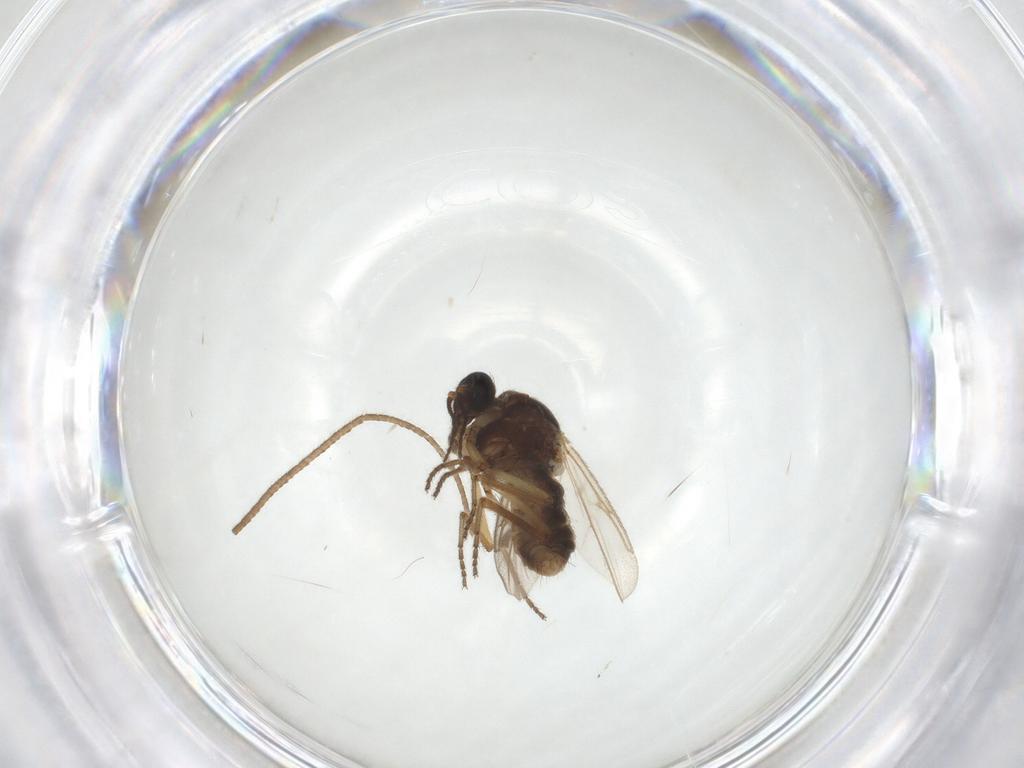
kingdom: Animalia
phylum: Arthropoda
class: Insecta
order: Diptera
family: Ceratopogonidae
